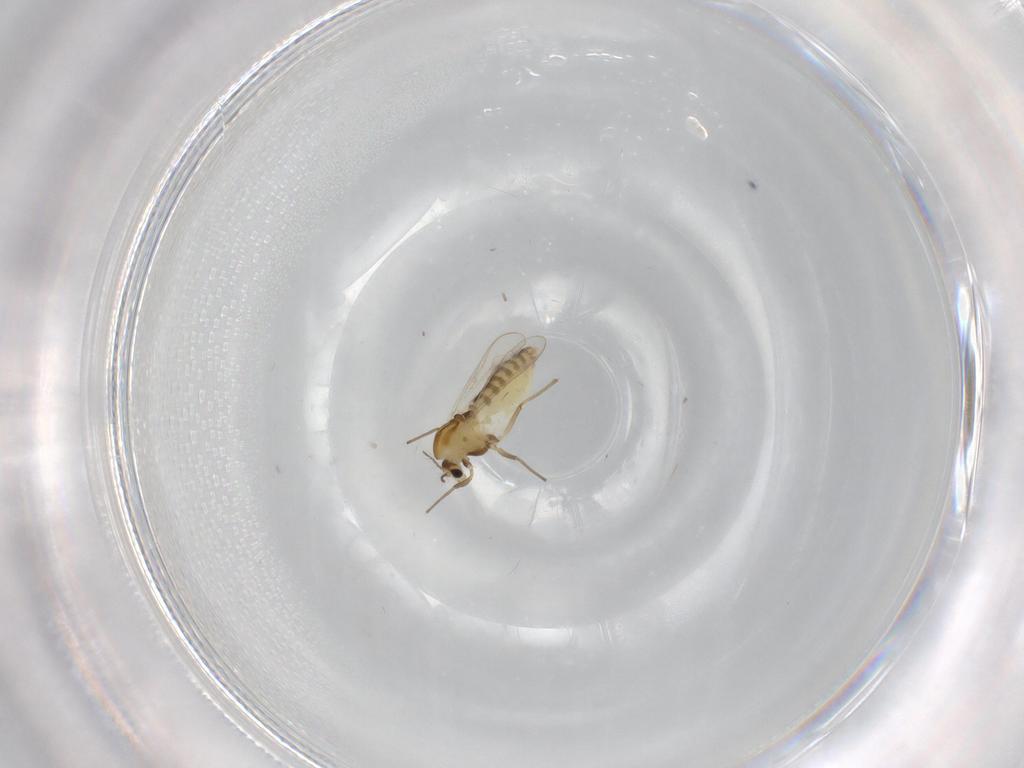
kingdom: Animalia
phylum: Arthropoda
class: Insecta
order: Diptera
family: Chironomidae
